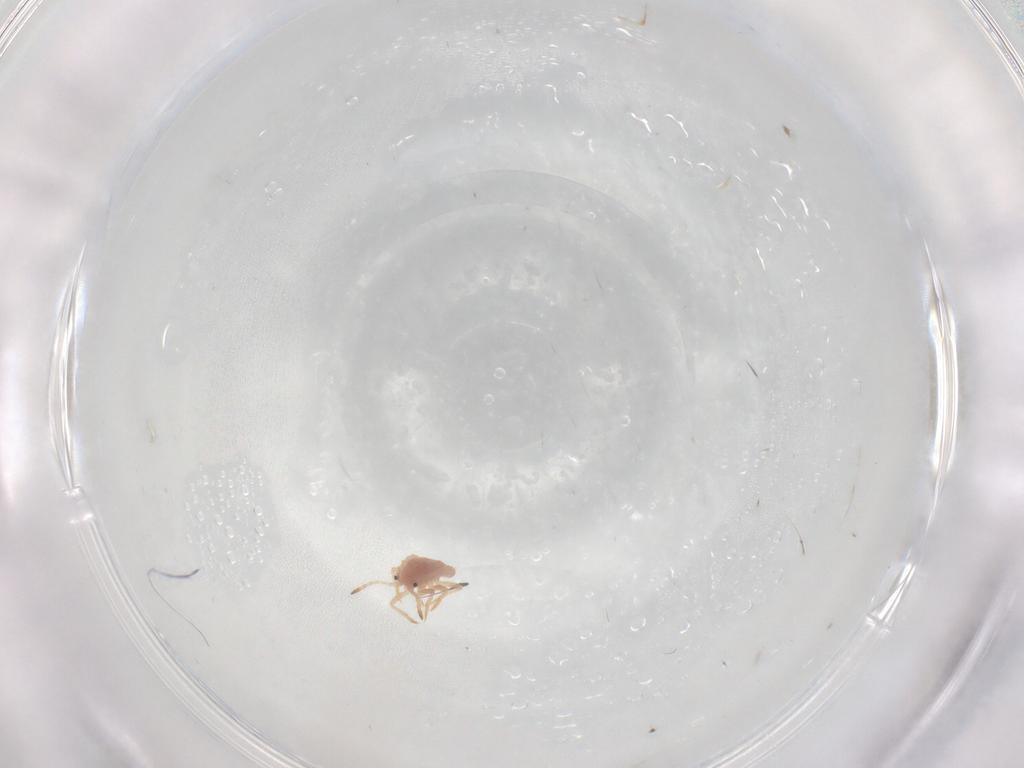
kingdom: Animalia
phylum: Arthropoda
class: Insecta
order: Hemiptera
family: Coccoidea_incertae_sedis
